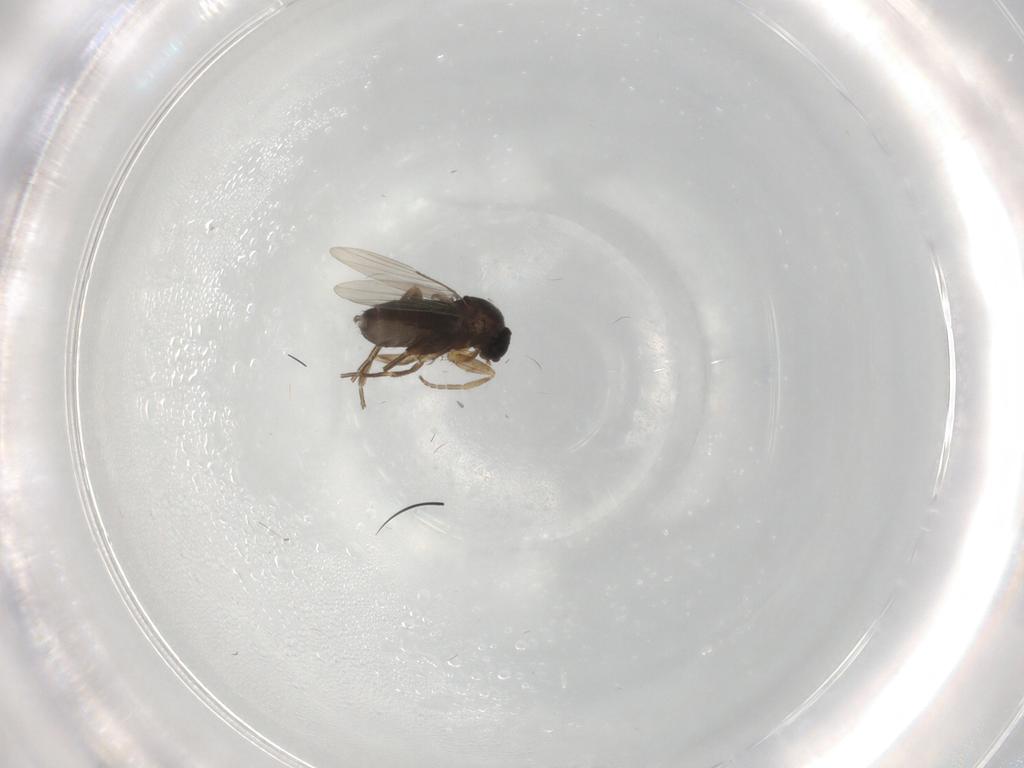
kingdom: Animalia
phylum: Arthropoda
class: Insecta
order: Diptera
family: Phoridae
